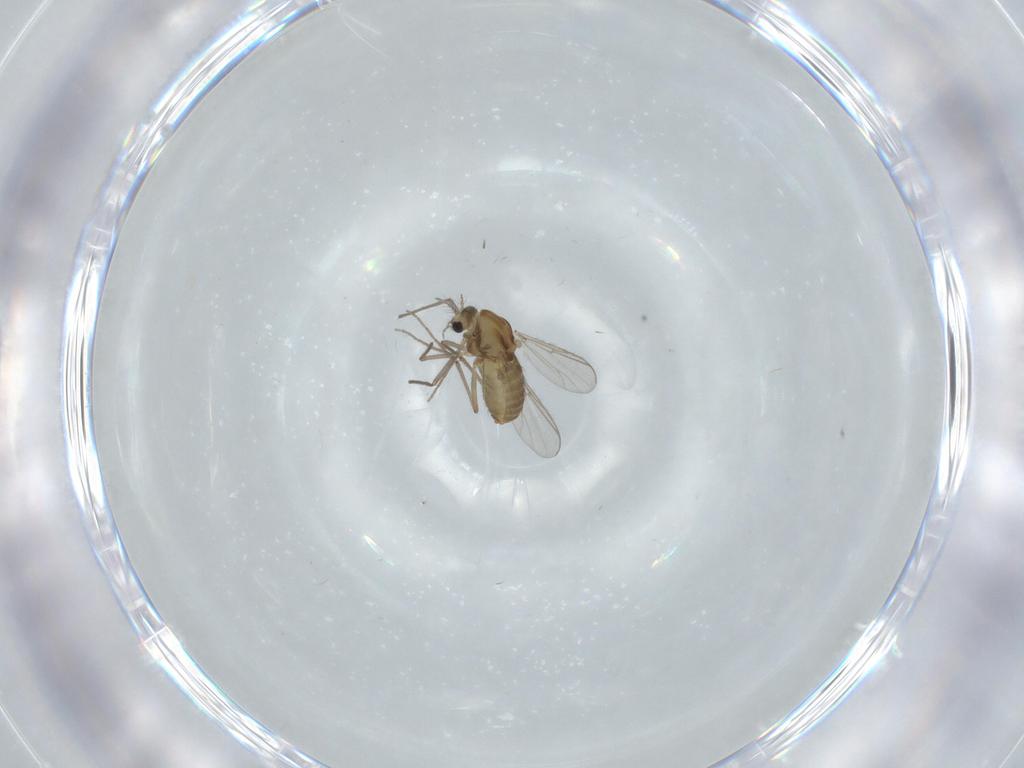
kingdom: Animalia
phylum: Arthropoda
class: Insecta
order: Diptera
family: Chironomidae
